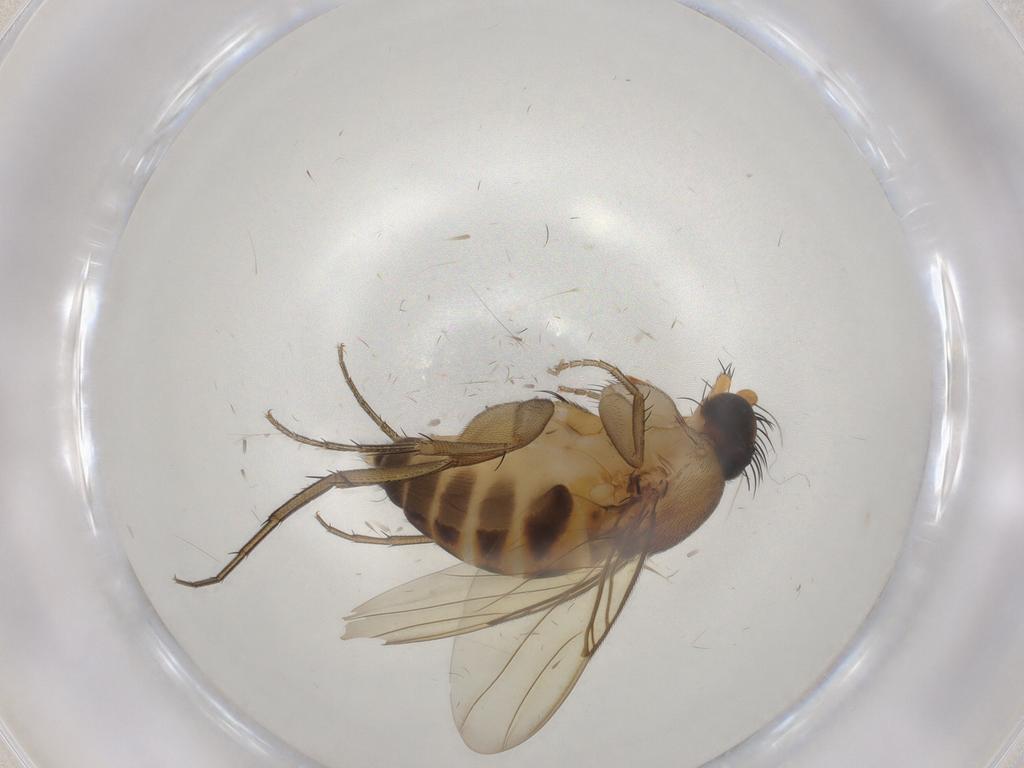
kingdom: Animalia
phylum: Arthropoda
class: Insecta
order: Diptera
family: Phoridae
